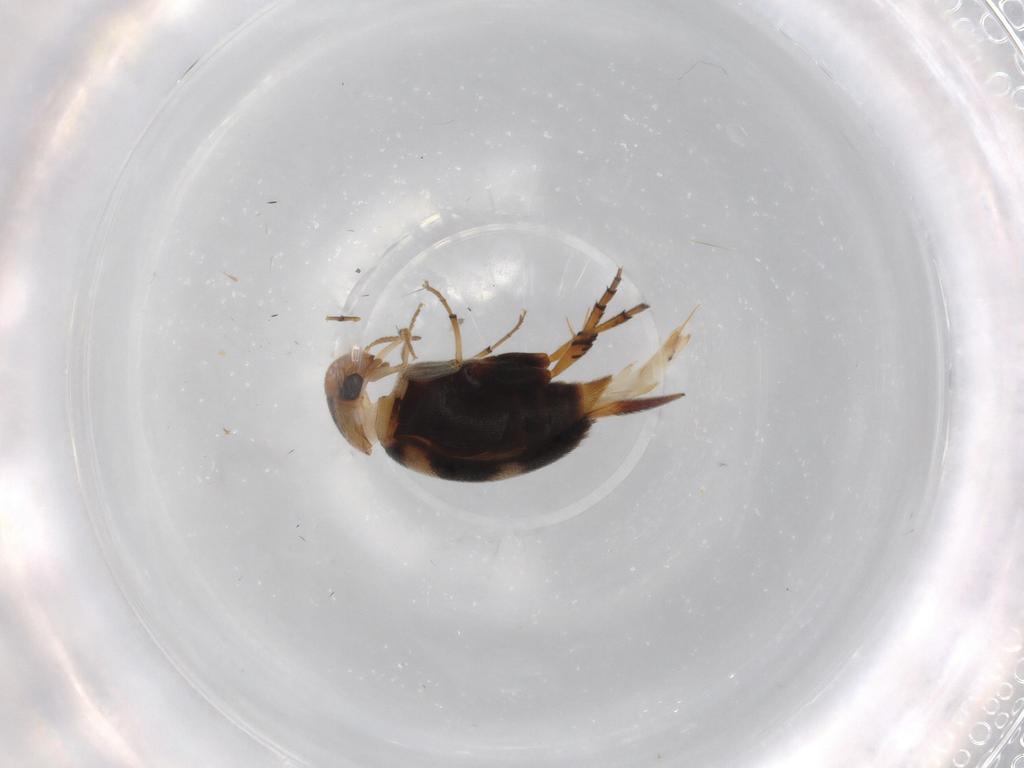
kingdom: Animalia
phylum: Arthropoda
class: Insecta
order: Coleoptera
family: Mordellidae
